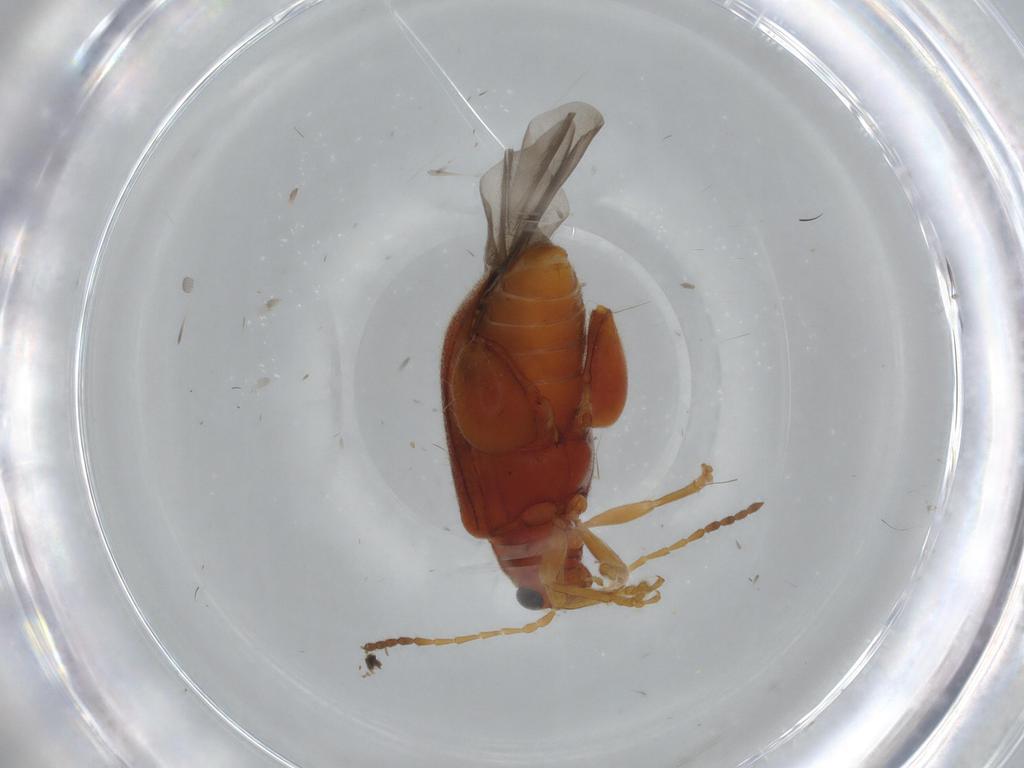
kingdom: Animalia
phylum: Arthropoda
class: Insecta
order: Coleoptera
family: Chrysomelidae
